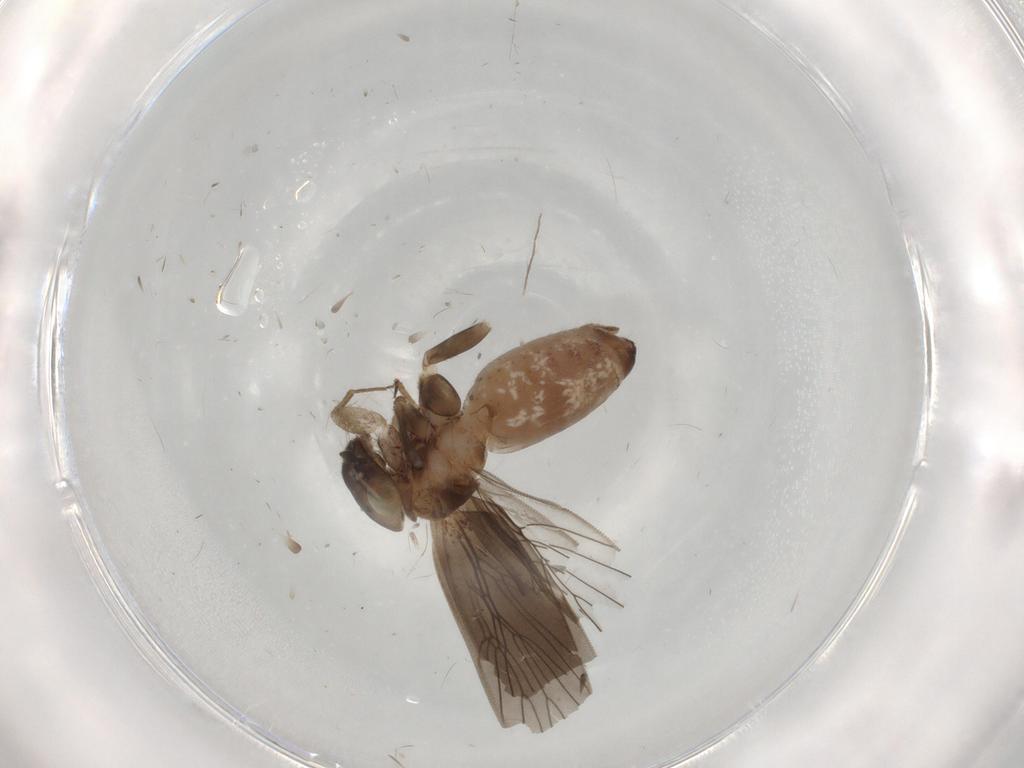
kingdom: Animalia
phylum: Arthropoda
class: Insecta
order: Psocodea
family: Lepidopsocidae
